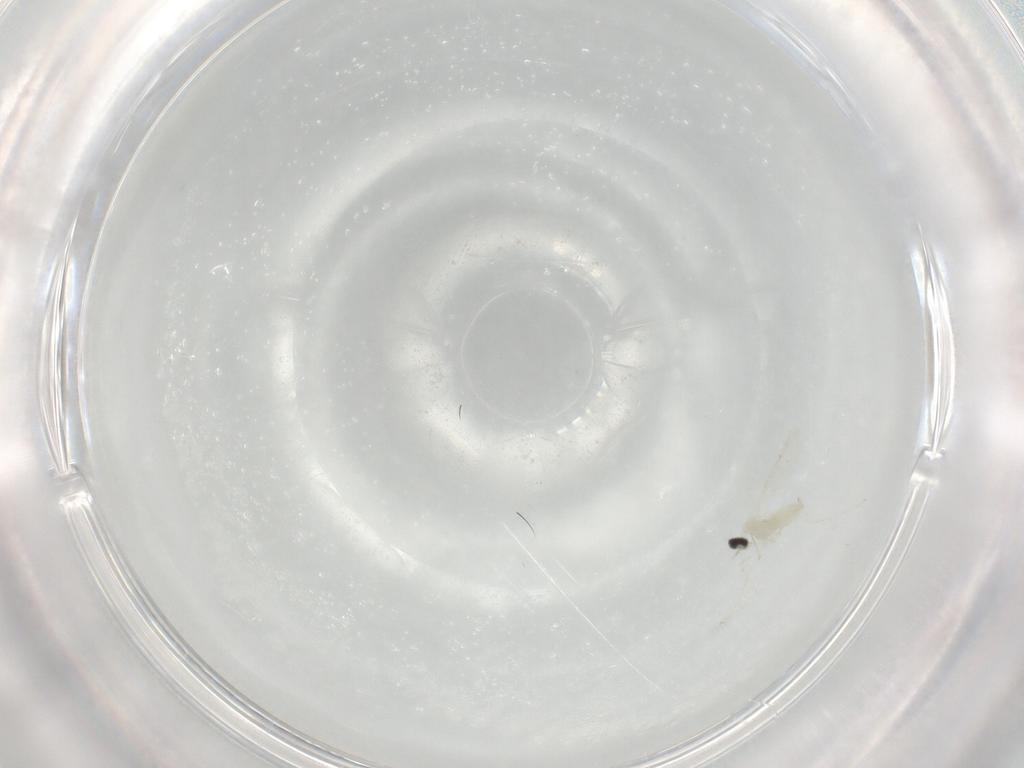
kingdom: Animalia
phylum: Arthropoda
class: Insecta
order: Diptera
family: Cecidomyiidae
